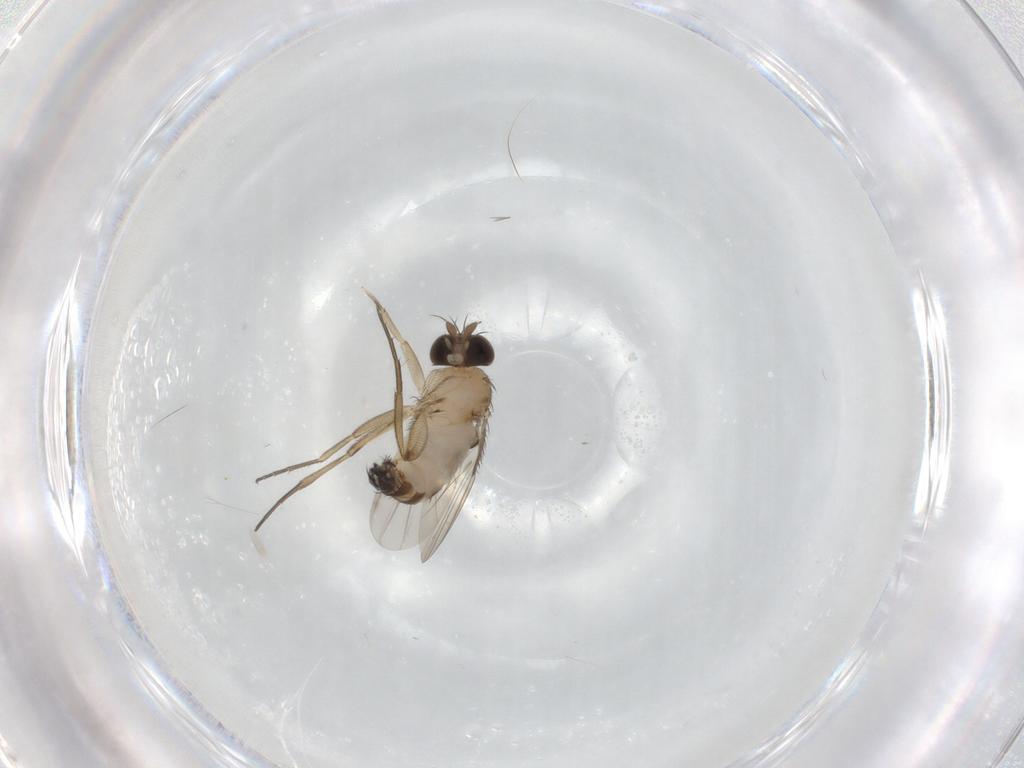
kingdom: Animalia
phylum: Arthropoda
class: Insecta
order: Diptera
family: Phoridae
